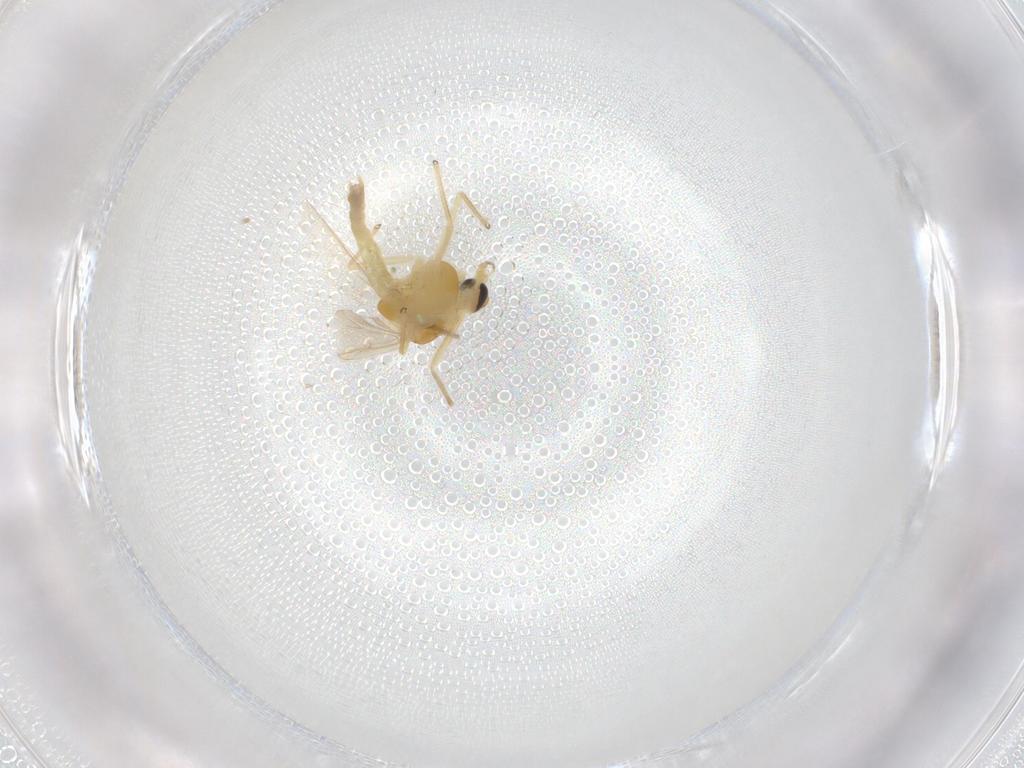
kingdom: Animalia
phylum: Arthropoda
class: Insecta
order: Diptera
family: Chironomidae
